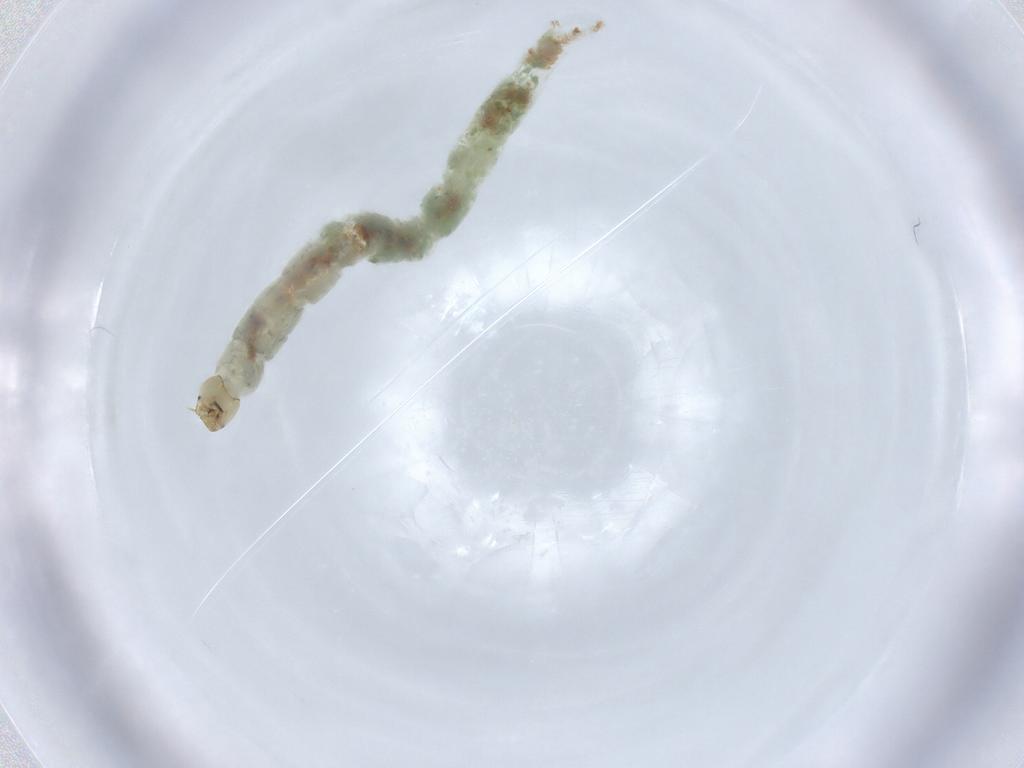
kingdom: Animalia
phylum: Arthropoda
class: Insecta
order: Diptera
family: Chironomidae
